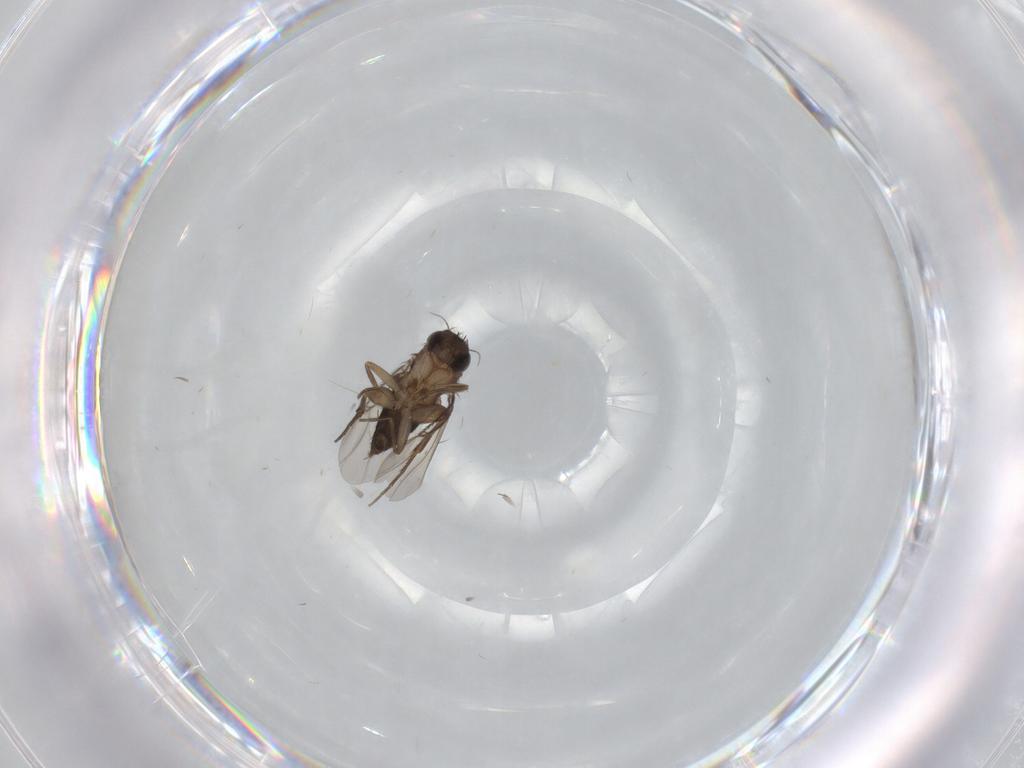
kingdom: Animalia
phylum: Arthropoda
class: Insecta
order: Diptera
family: Phoridae
